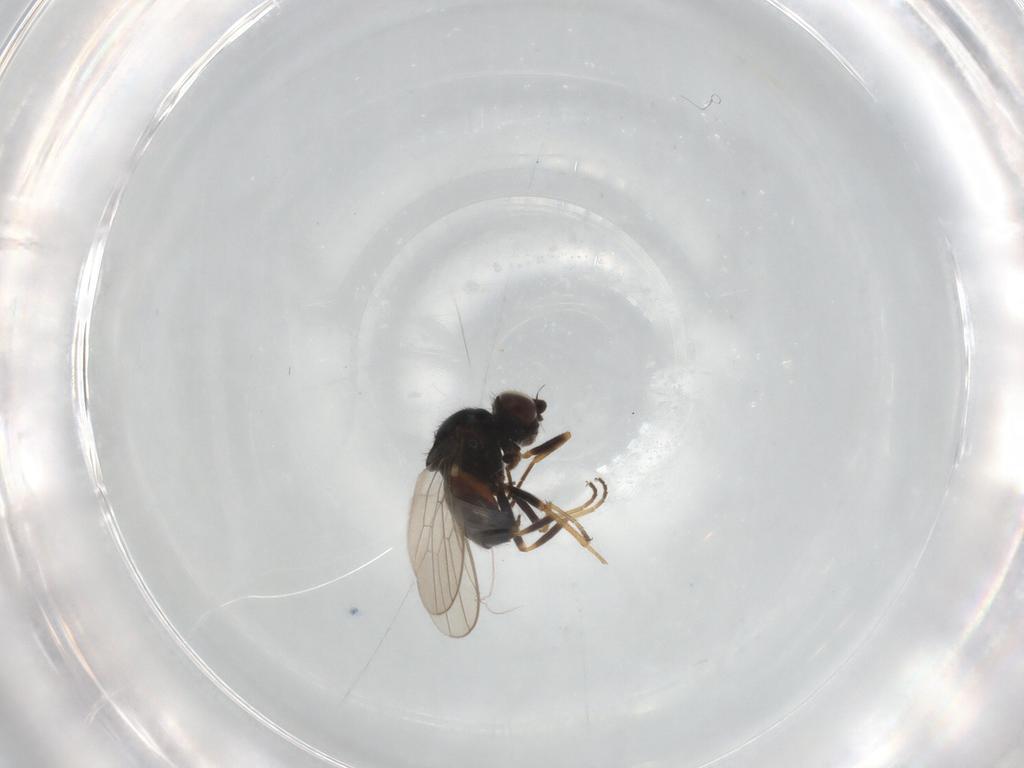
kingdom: Animalia
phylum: Arthropoda
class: Insecta
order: Diptera
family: Chloropidae
